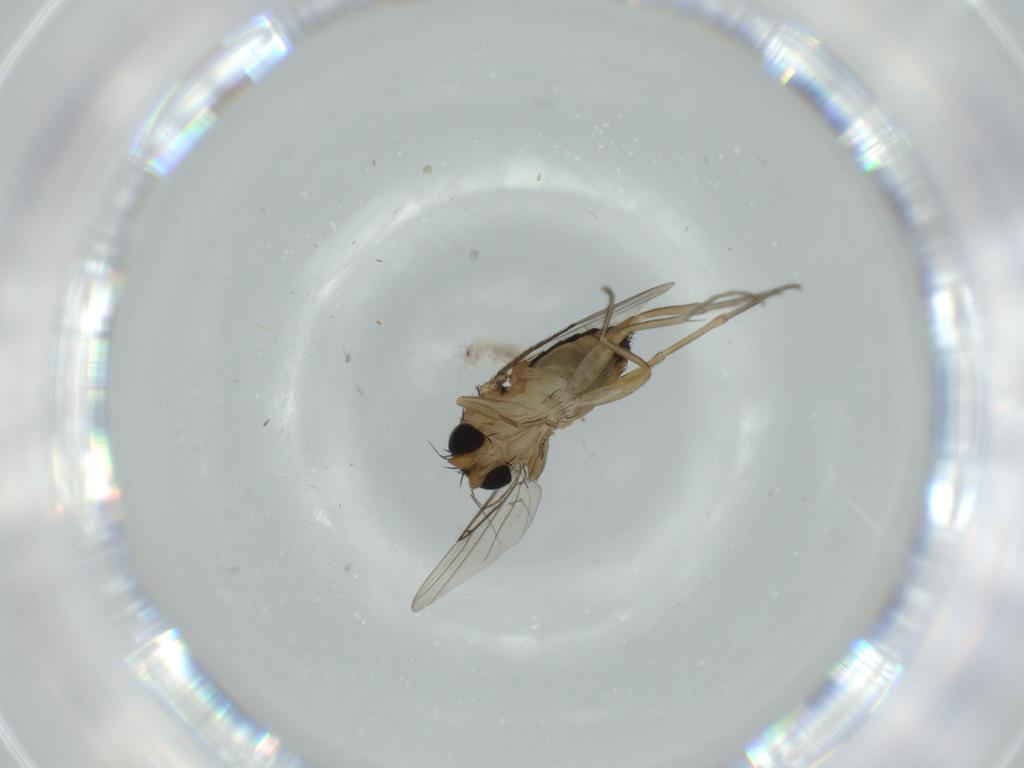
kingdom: Animalia
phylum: Arthropoda
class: Insecta
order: Diptera
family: Phoridae
